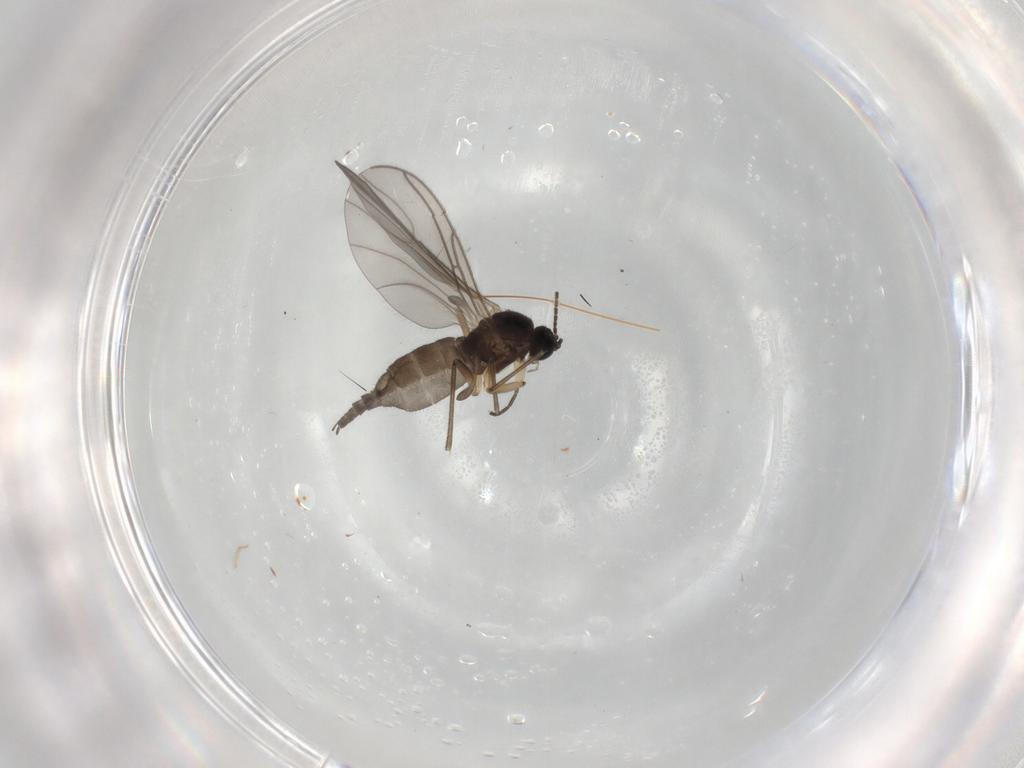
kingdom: Animalia
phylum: Arthropoda
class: Insecta
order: Diptera
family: Sciaridae
